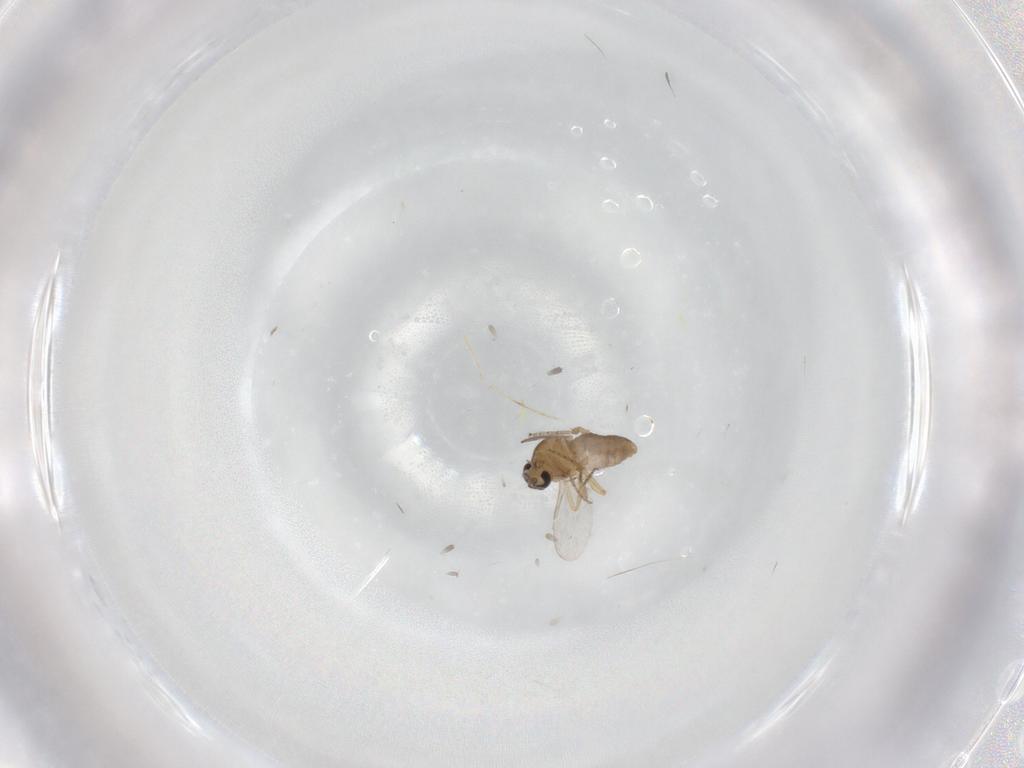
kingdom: Animalia
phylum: Arthropoda
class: Insecta
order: Diptera
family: Ceratopogonidae
